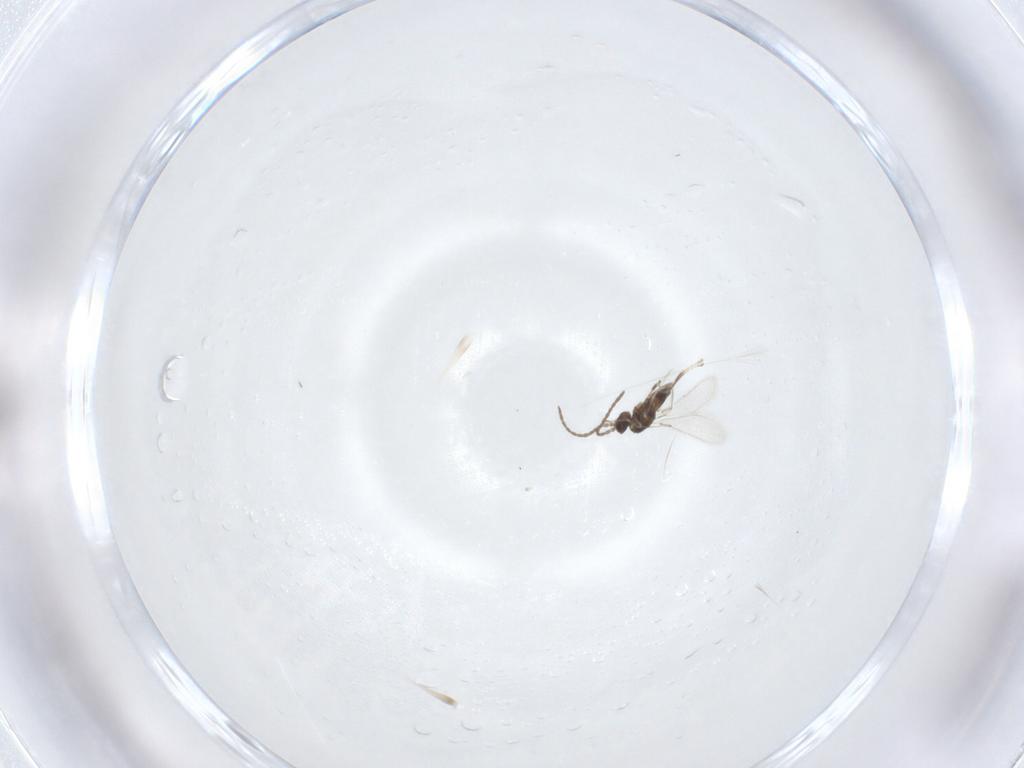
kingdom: Animalia
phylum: Arthropoda
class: Insecta
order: Hymenoptera
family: Mymaridae
